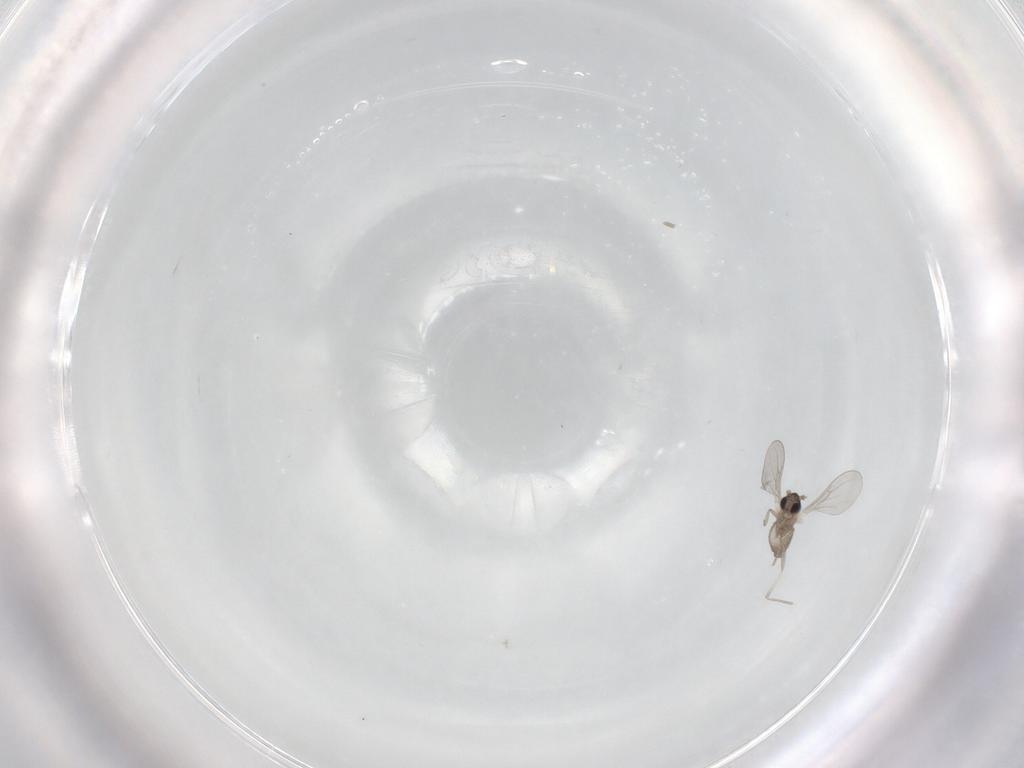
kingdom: Animalia
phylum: Arthropoda
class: Insecta
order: Diptera
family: Cecidomyiidae
